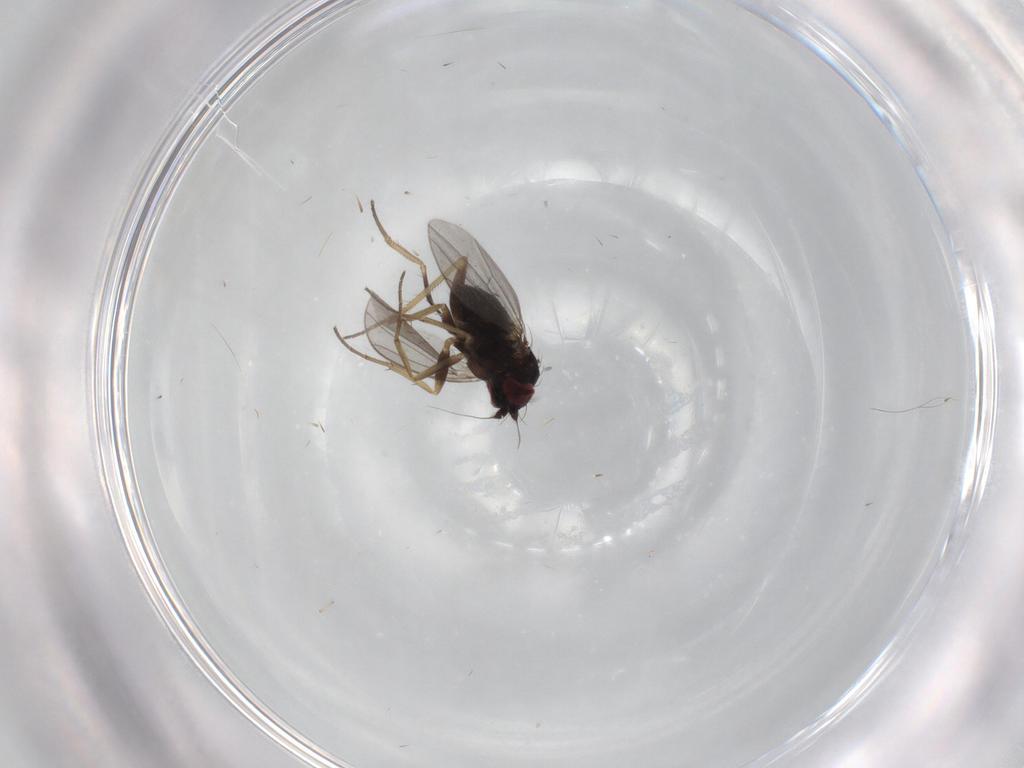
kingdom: Animalia
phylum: Arthropoda
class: Insecta
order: Diptera
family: Dolichopodidae
